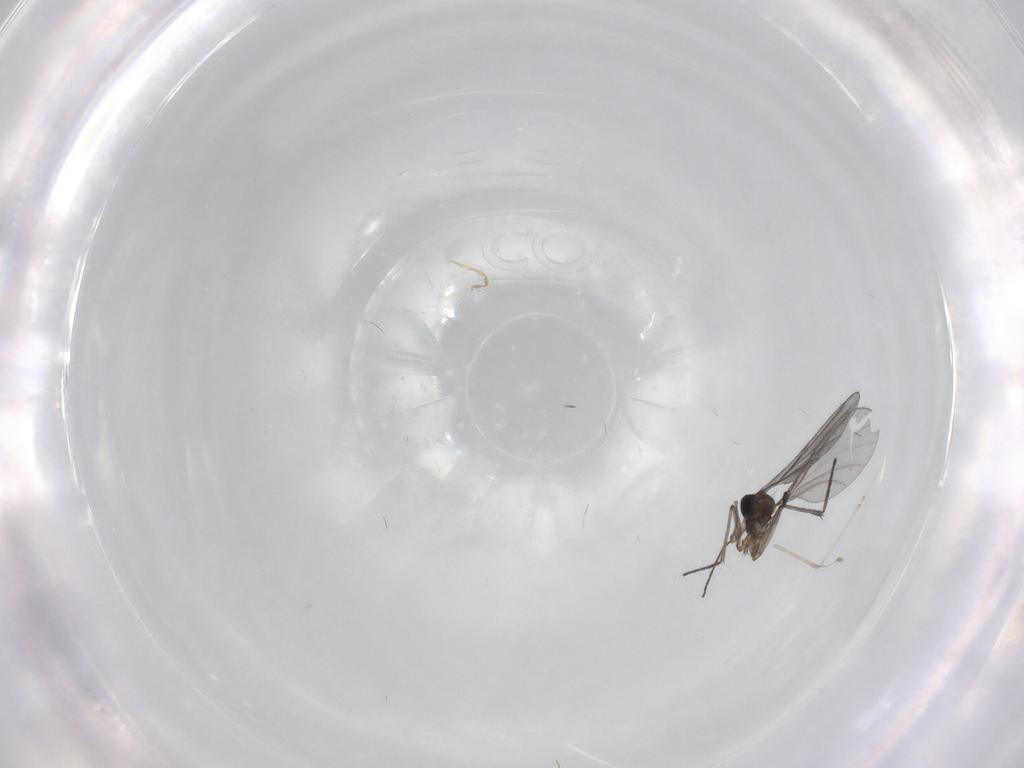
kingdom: Animalia
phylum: Arthropoda
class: Insecta
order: Diptera
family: Cecidomyiidae
